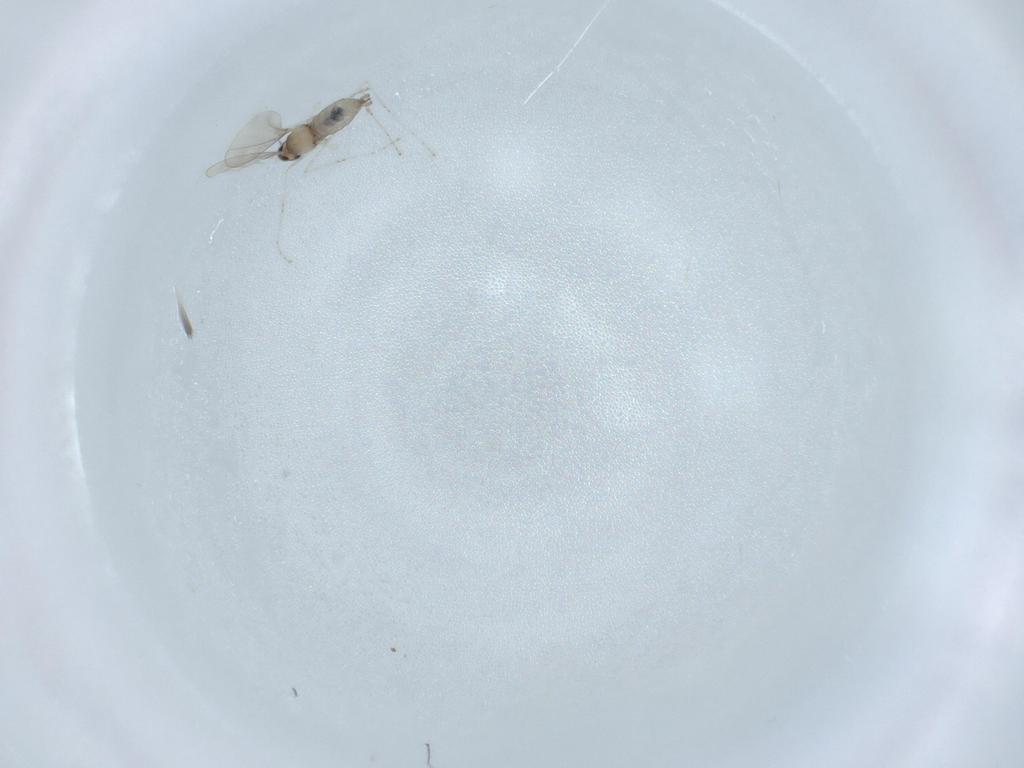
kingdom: Animalia
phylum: Arthropoda
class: Insecta
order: Diptera
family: Cecidomyiidae
